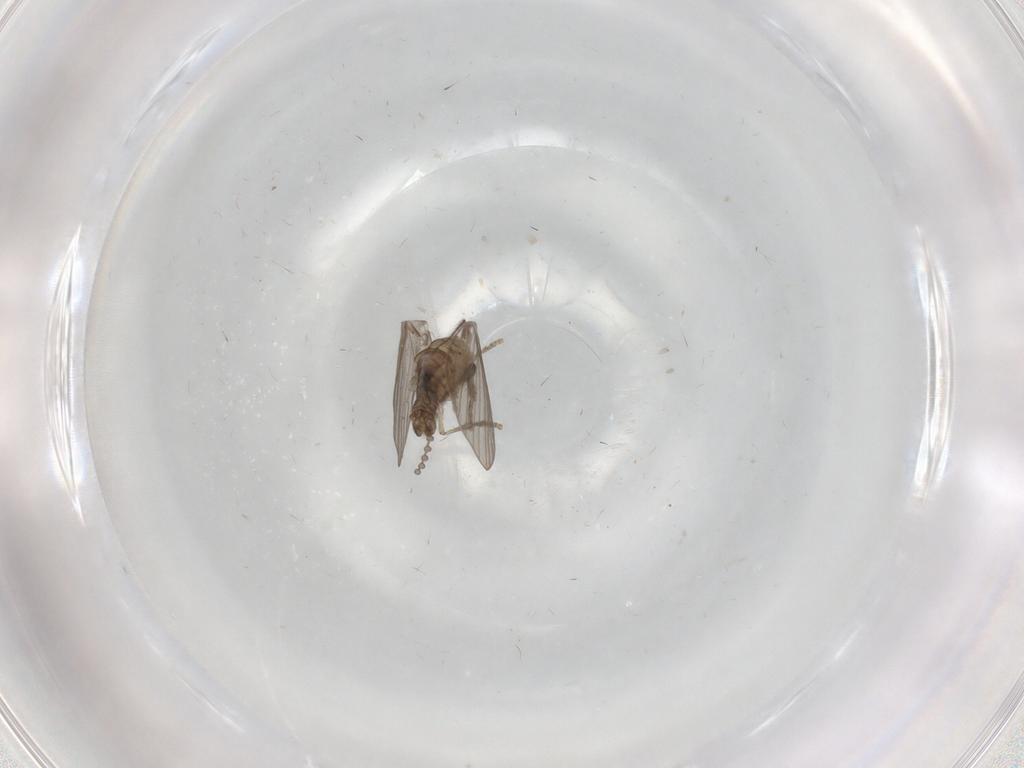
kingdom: Animalia
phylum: Arthropoda
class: Insecta
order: Diptera
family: Psychodidae
